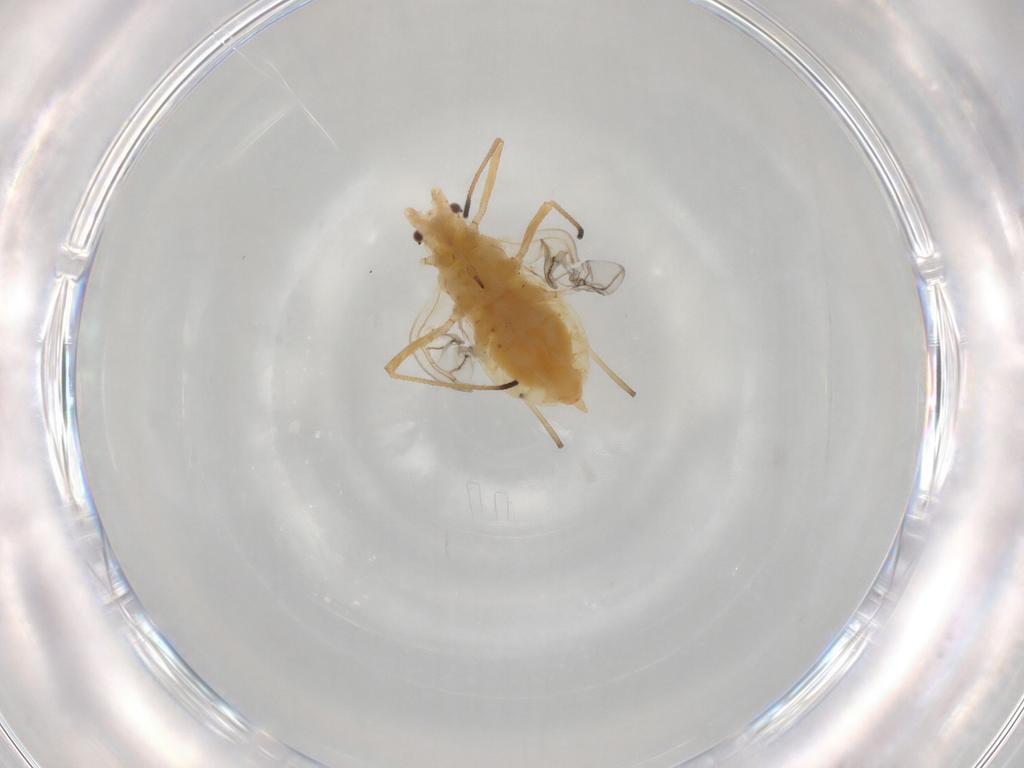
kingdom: Animalia
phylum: Arthropoda
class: Insecta
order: Hemiptera
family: Aphididae
